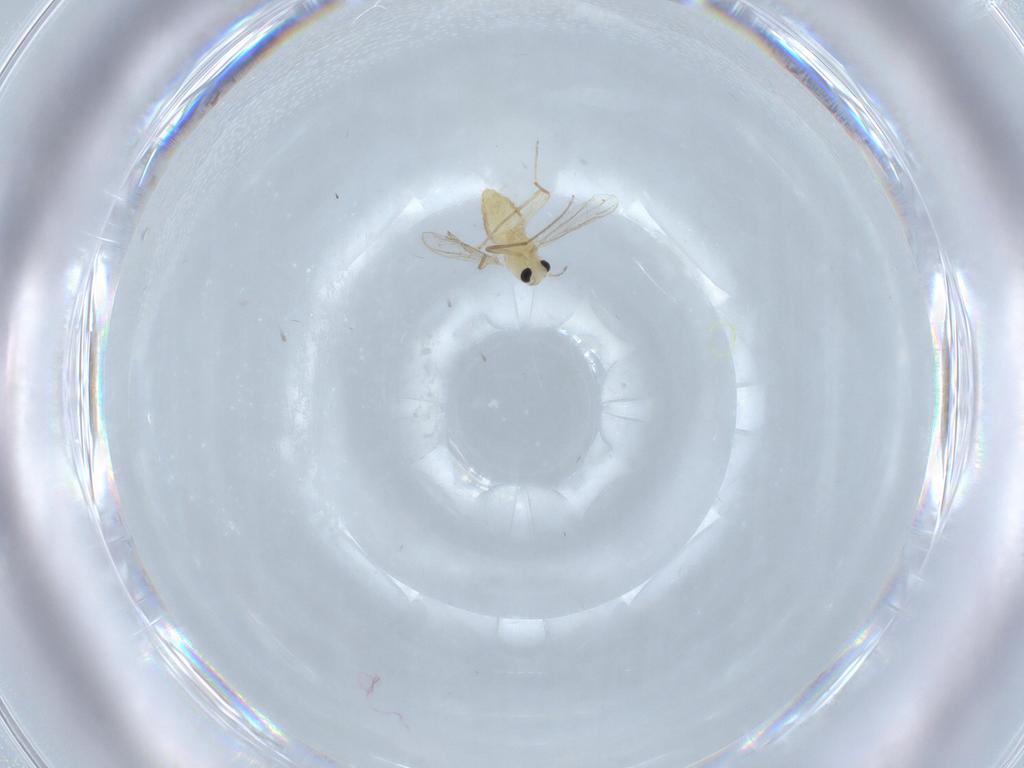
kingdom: Animalia
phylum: Arthropoda
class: Insecta
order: Diptera
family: Chironomidae
